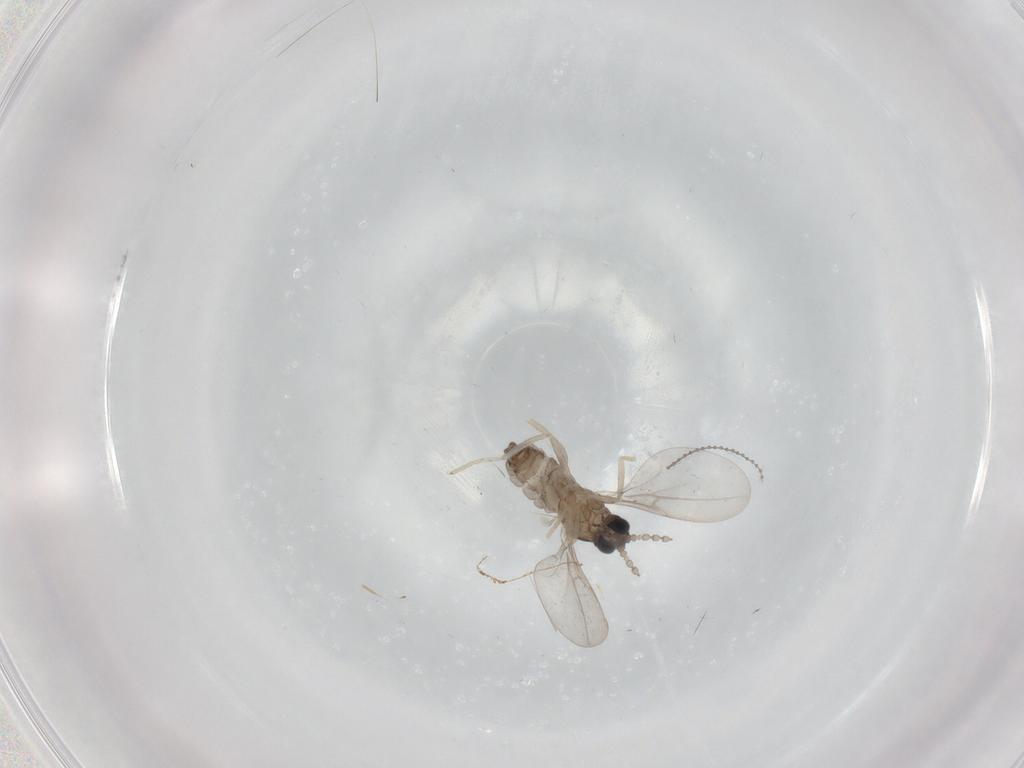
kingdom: Animalia
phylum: Arthropoda
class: Insecta
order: Diptera
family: Cecidomyiidae
